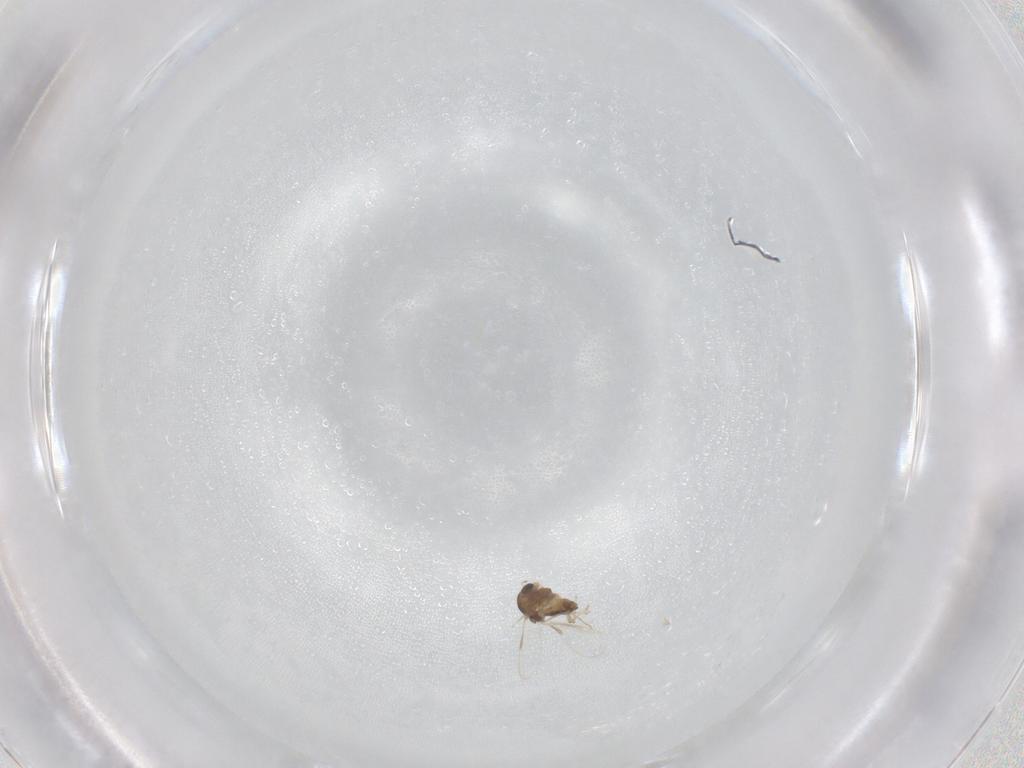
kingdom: Animalia
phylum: Arthropoda
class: Insecta
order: Diptera
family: Chironomidae
